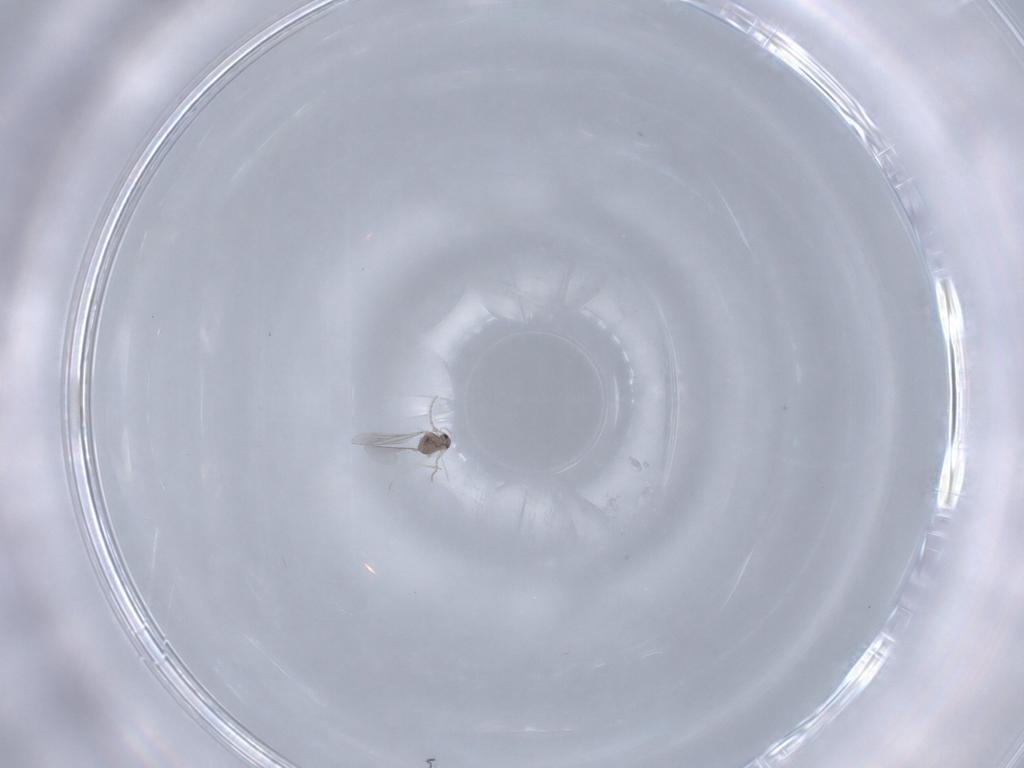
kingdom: Animalia
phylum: Arthropoda
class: Insecta
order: Diptera
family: Cecidomyiidae
